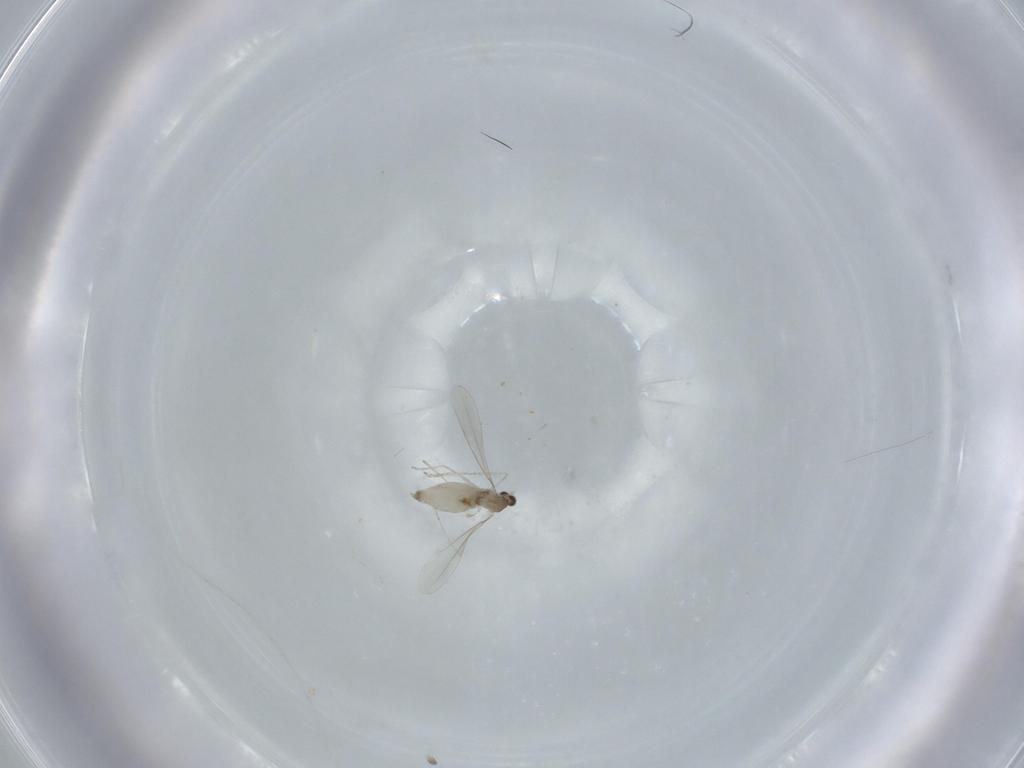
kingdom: Animalia
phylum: Arthropoda
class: Insecta
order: Diptera
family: Cecidomyiidae
